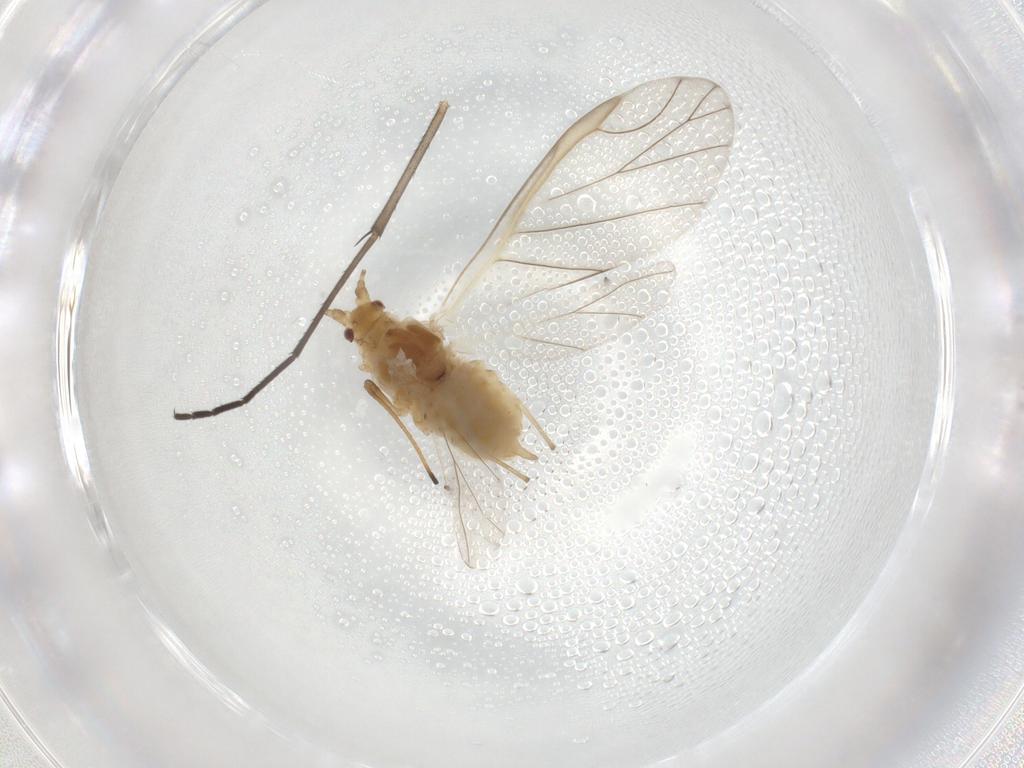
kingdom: Animalia
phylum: Arthropoda
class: Insecta
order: Hemiptera
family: Aphididae
